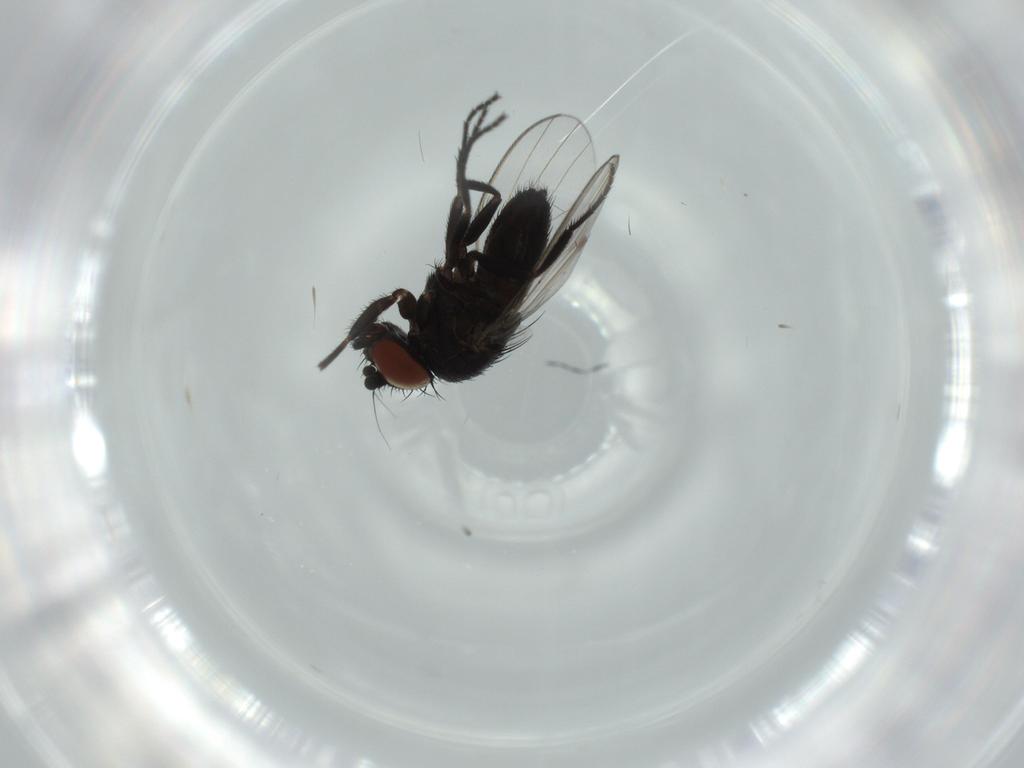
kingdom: Animalia
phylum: Arthropoda
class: Insecta
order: Diptera
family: Milichiidae
